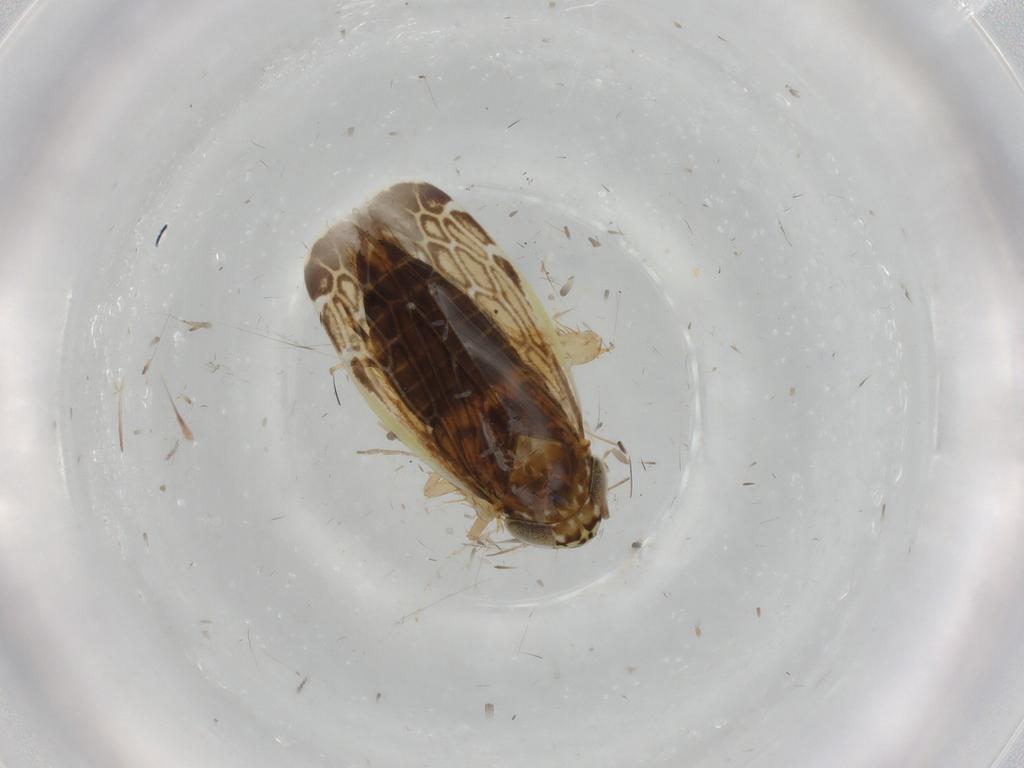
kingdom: Animalia
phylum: Arthropoda
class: Insecta
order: Hemiptera
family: Cicadellidae
